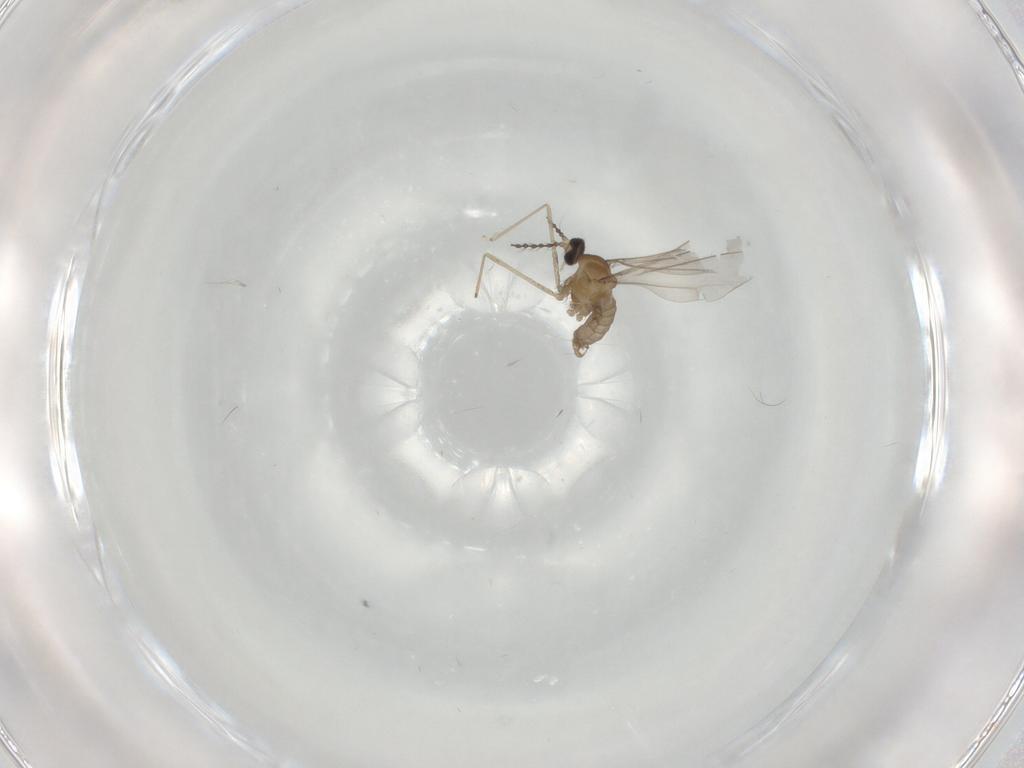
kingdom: Animalia
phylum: Arthropoda
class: Insecta
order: Diptera
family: Cecidomyiidae
